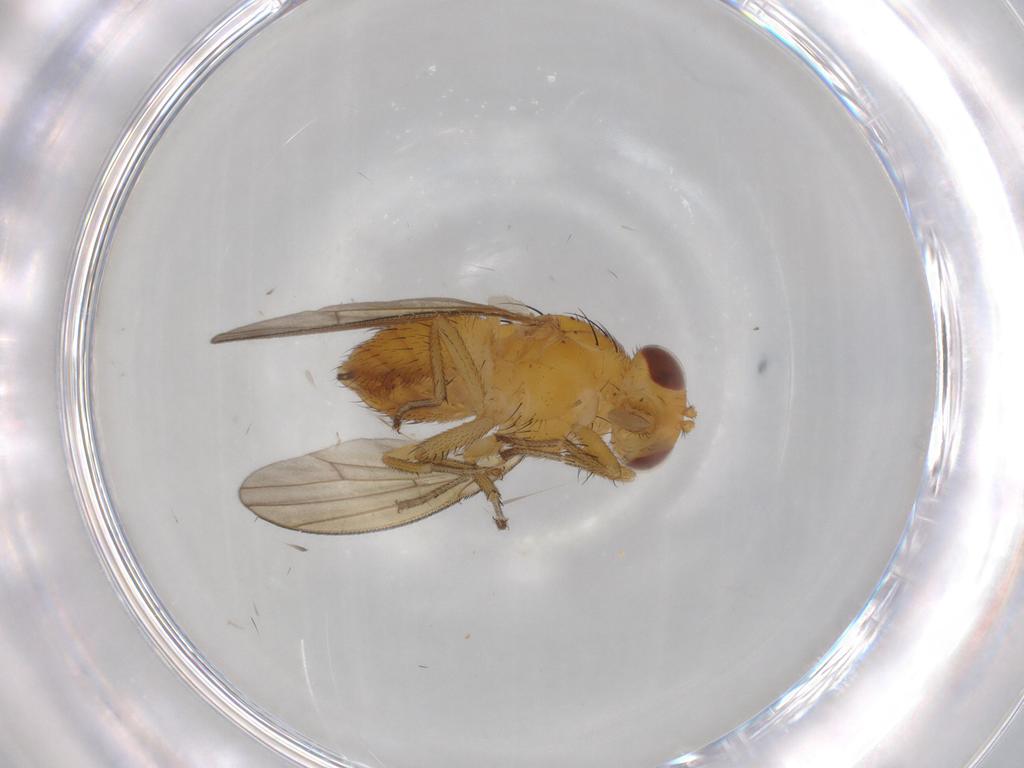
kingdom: Animalia
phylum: Arthropoda
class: Insecta
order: Diptera
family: Lauxaniidae
